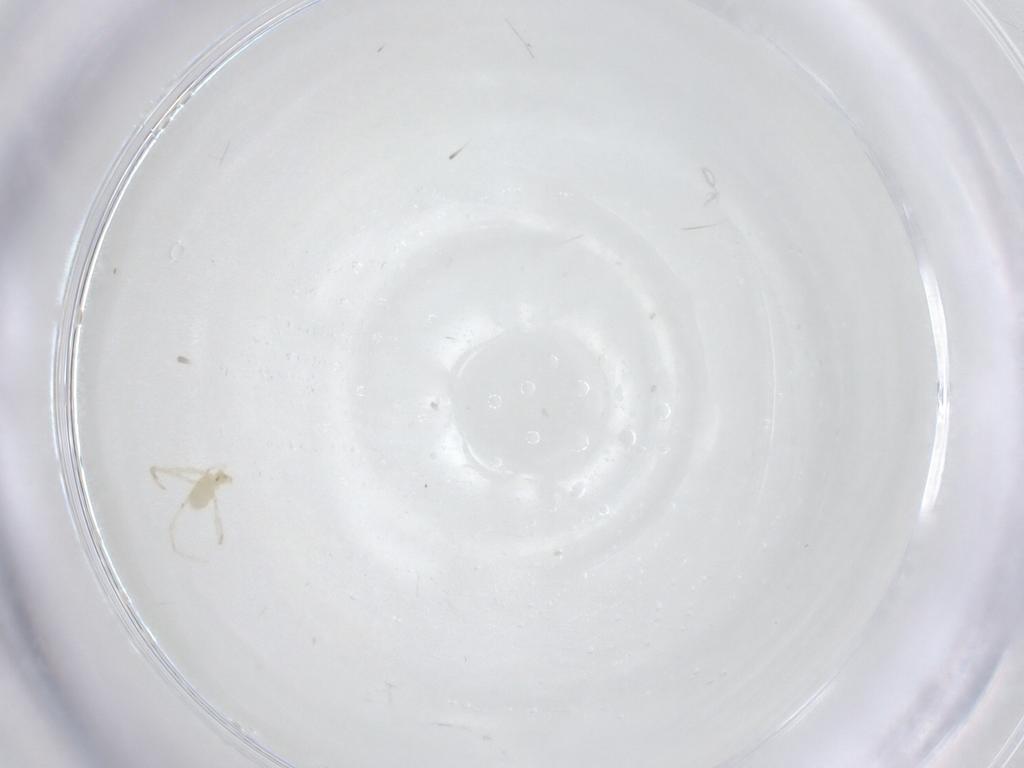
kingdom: Animalia
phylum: Arthropoda
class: Arachnida
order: Trombidiformes
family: Erythraeidae
